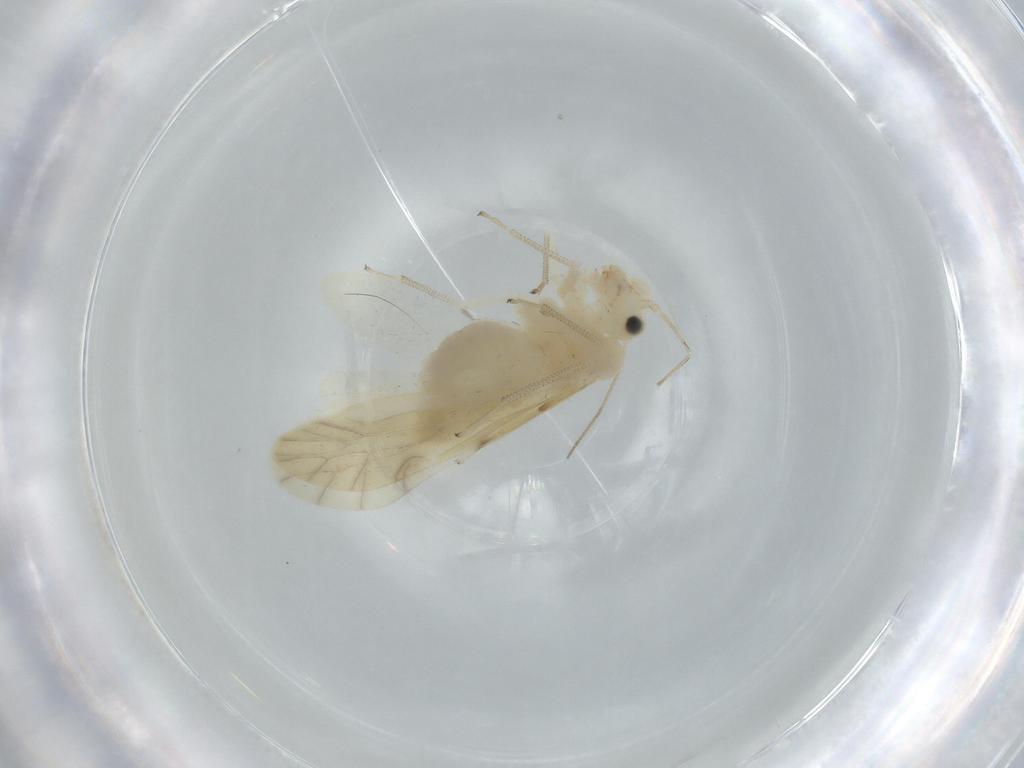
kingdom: Animalia
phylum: Arthropoda
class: Insecta
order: Psocodea
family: Caeciliusidae
